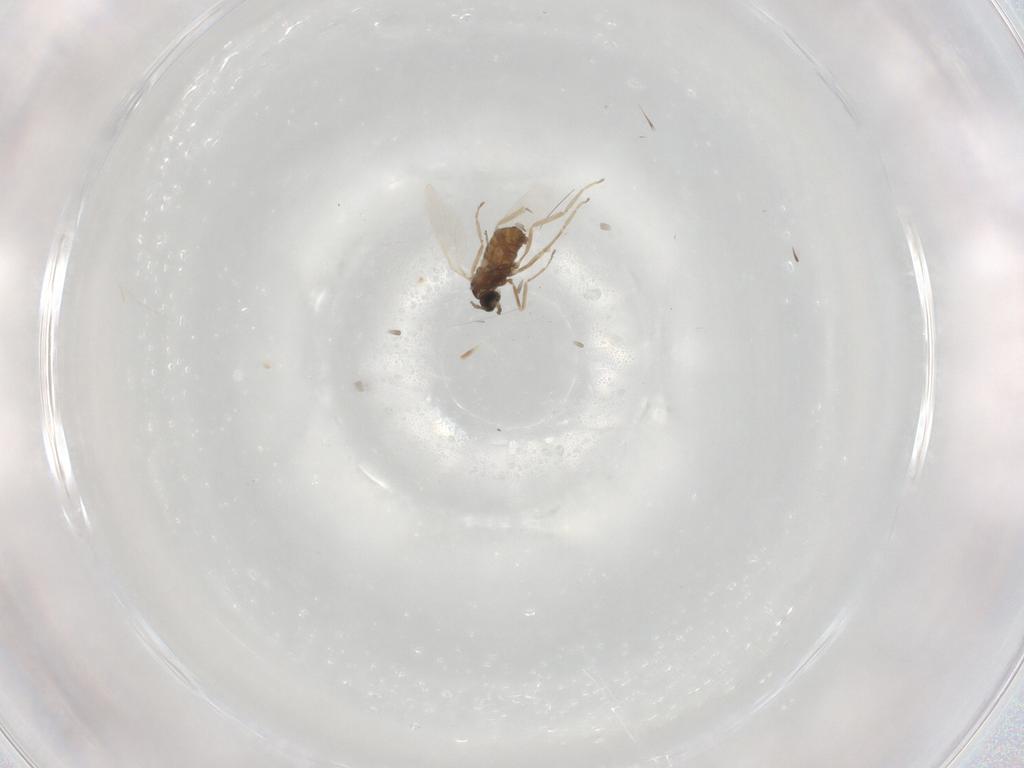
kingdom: Animalia
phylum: Arthropoda
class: Insecta
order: Diptera
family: Cecidomyiidae
